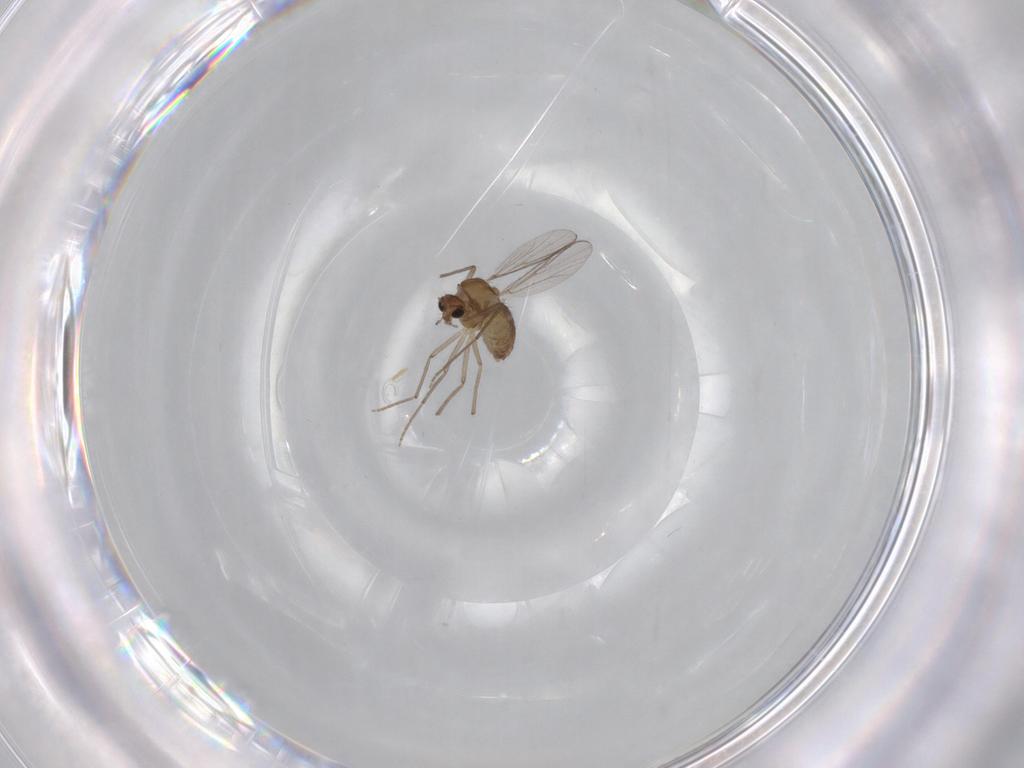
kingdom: Animalia
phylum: Arthropoda
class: Insecta
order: Diptera
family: Chironomidae
